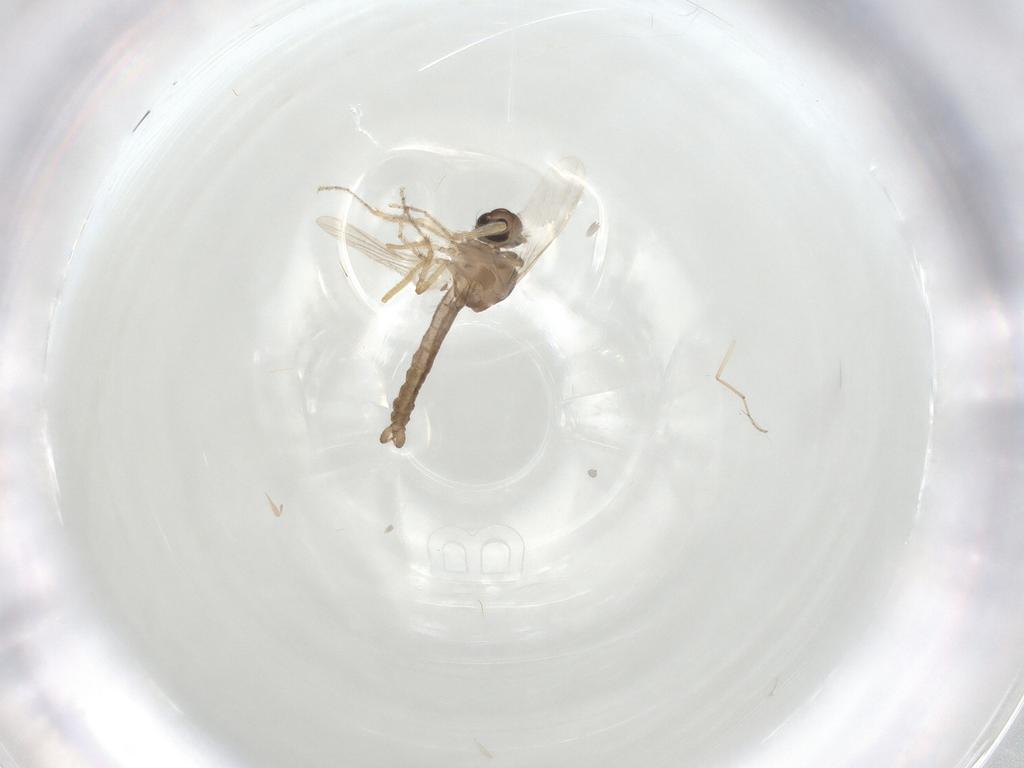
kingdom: Animalia
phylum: Arthropoda
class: Insecta
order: Diptera
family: Ceratopogonidae
